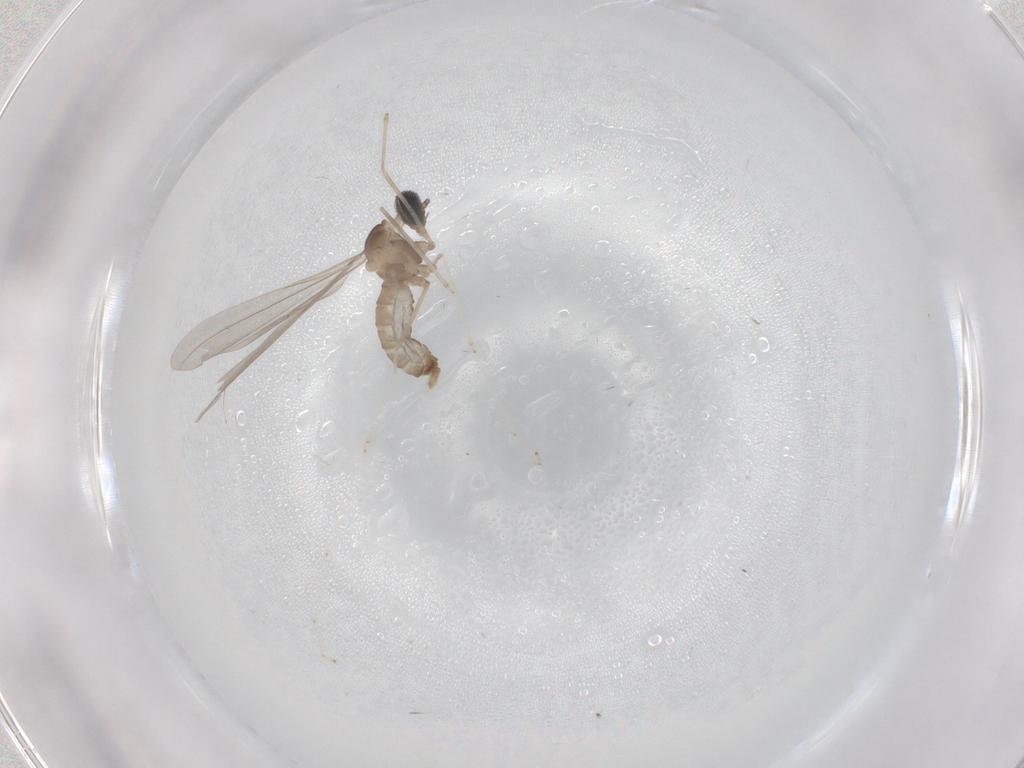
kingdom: Animalia
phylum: Arthropoda
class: Insecta
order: Diptera
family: Cecidomyiidae
